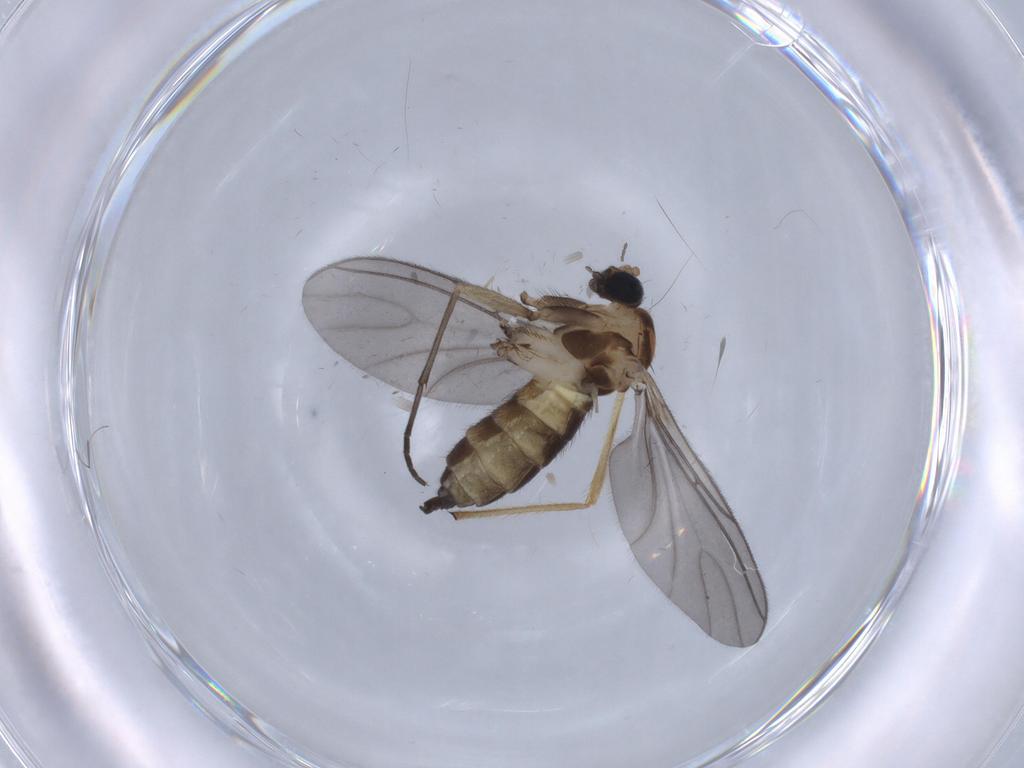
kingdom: Animalia
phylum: Arthropoda
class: Insecta
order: Diptera
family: Sciaridae
